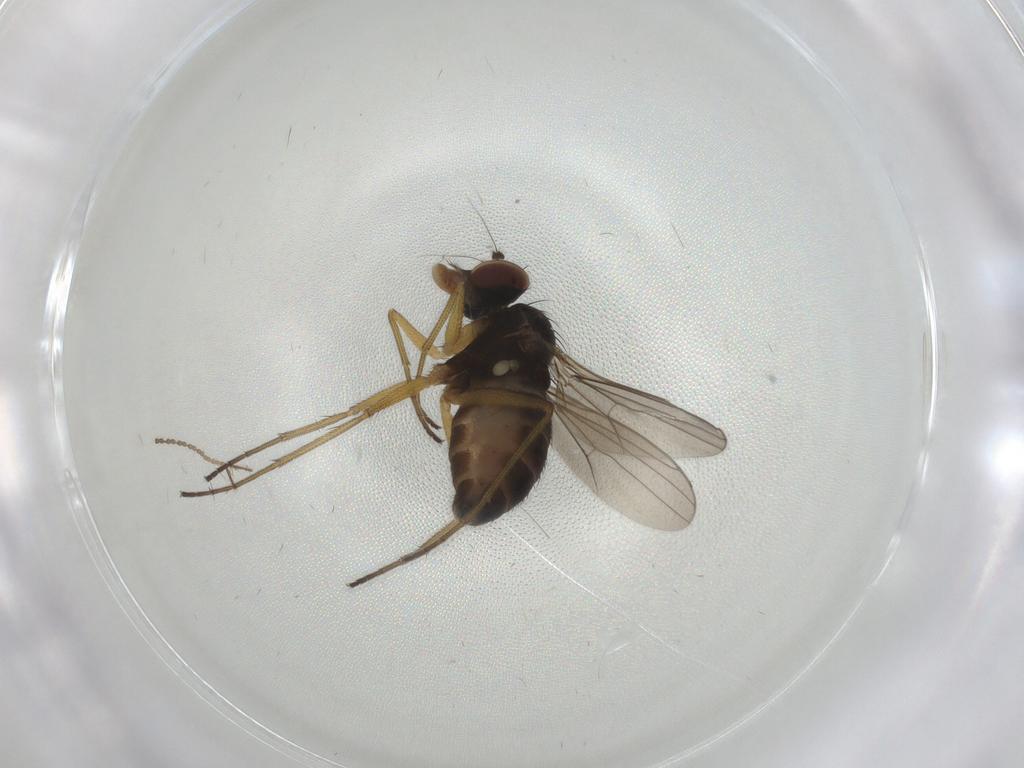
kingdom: Animalia
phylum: Arthropoda
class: Insecta
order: Diptera
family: Dolichopodidae
